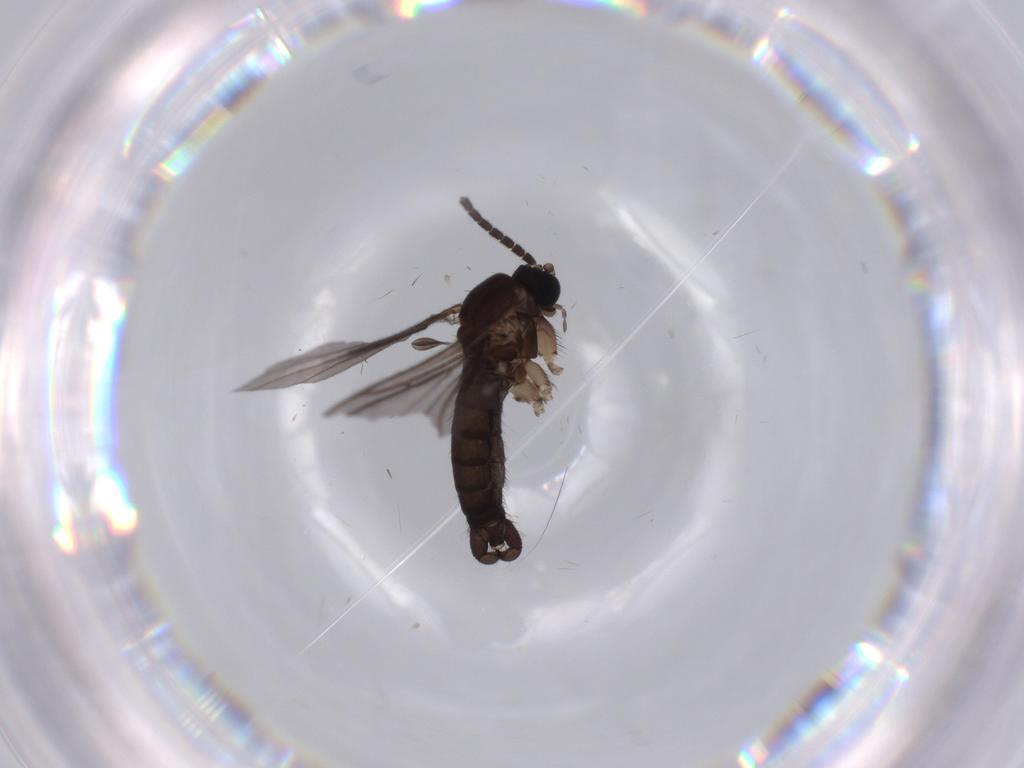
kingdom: Animalia
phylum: Arthropoda
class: Insecta
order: Diptera
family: Sciaridae
